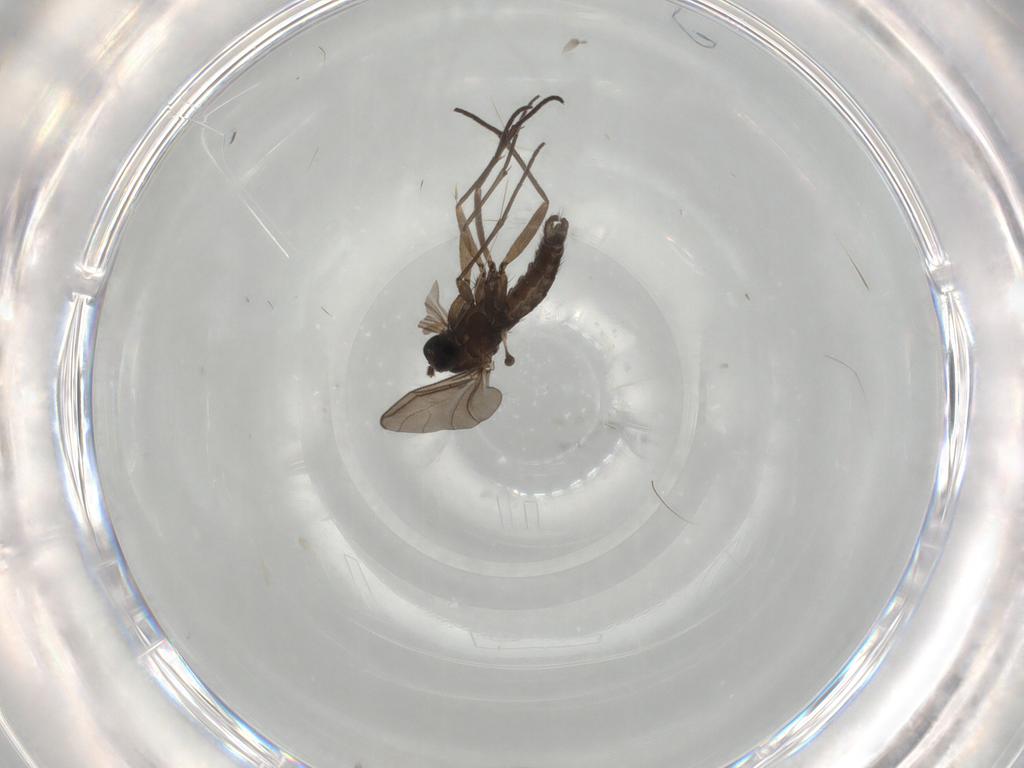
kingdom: Animalia
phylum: Arthropoda
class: Insecta
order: Diptera
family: Sciaridae
